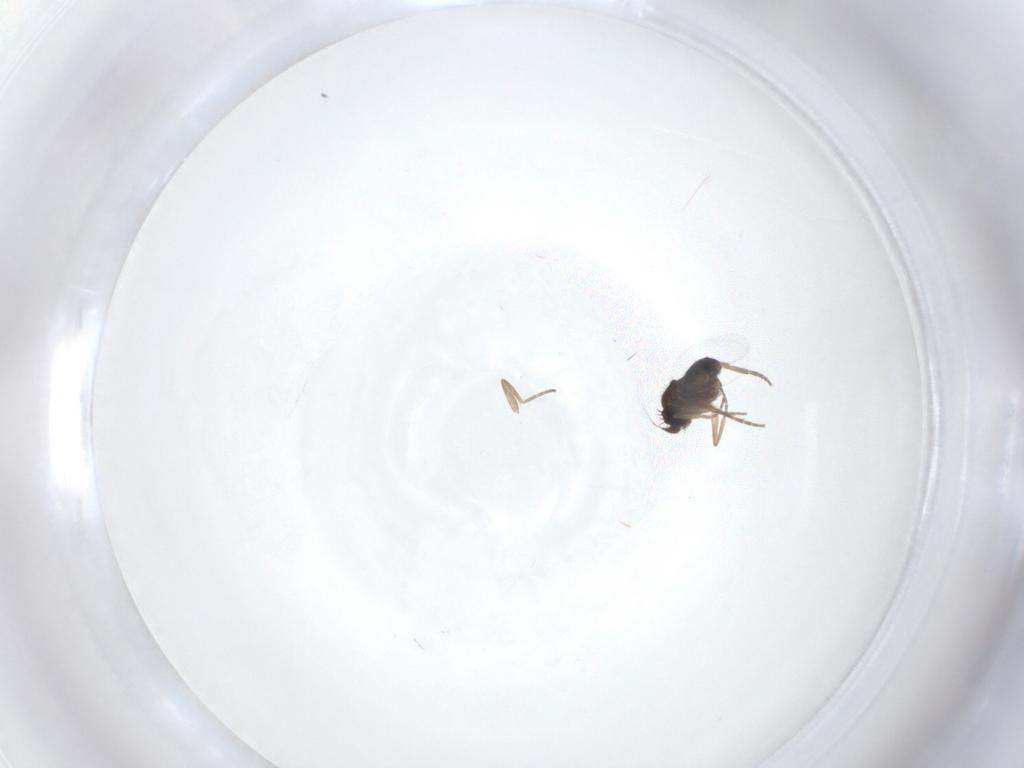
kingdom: Animalia
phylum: Arthropoda
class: Insecta
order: Diptera
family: Phoridae
